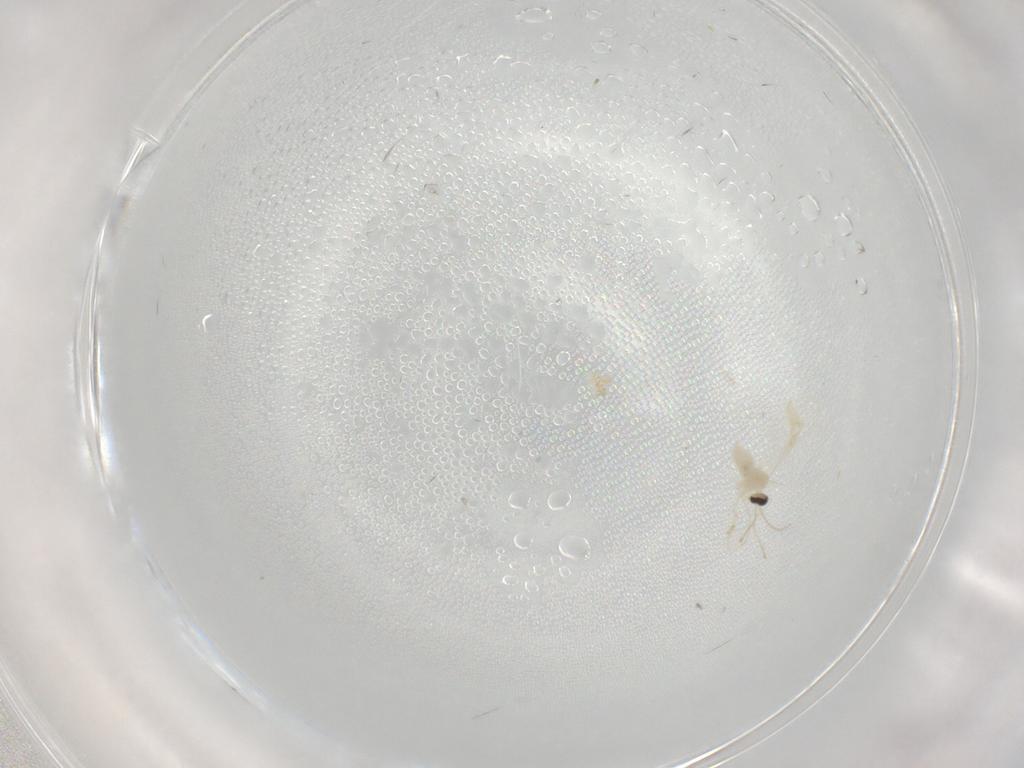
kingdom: Animalia
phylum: Arthropoda
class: Insecta
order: Diptera
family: Cecidomyiidae
